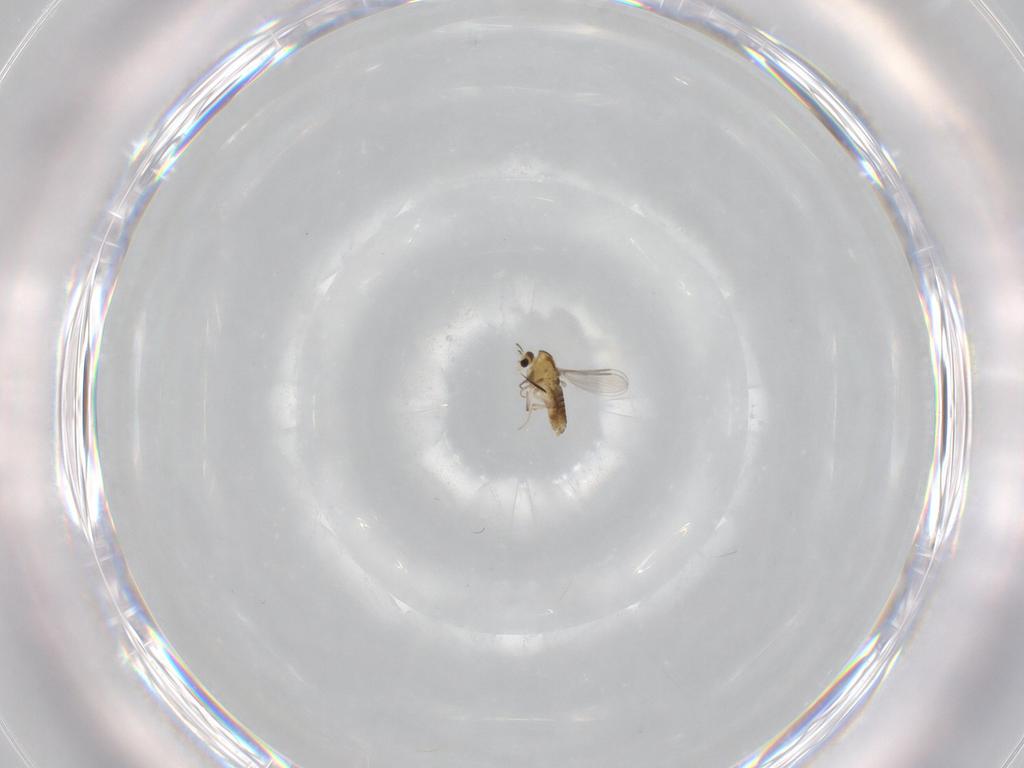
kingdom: Animalia
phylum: Arthropoda
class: Insecta
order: Diptera
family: Chironomidae
